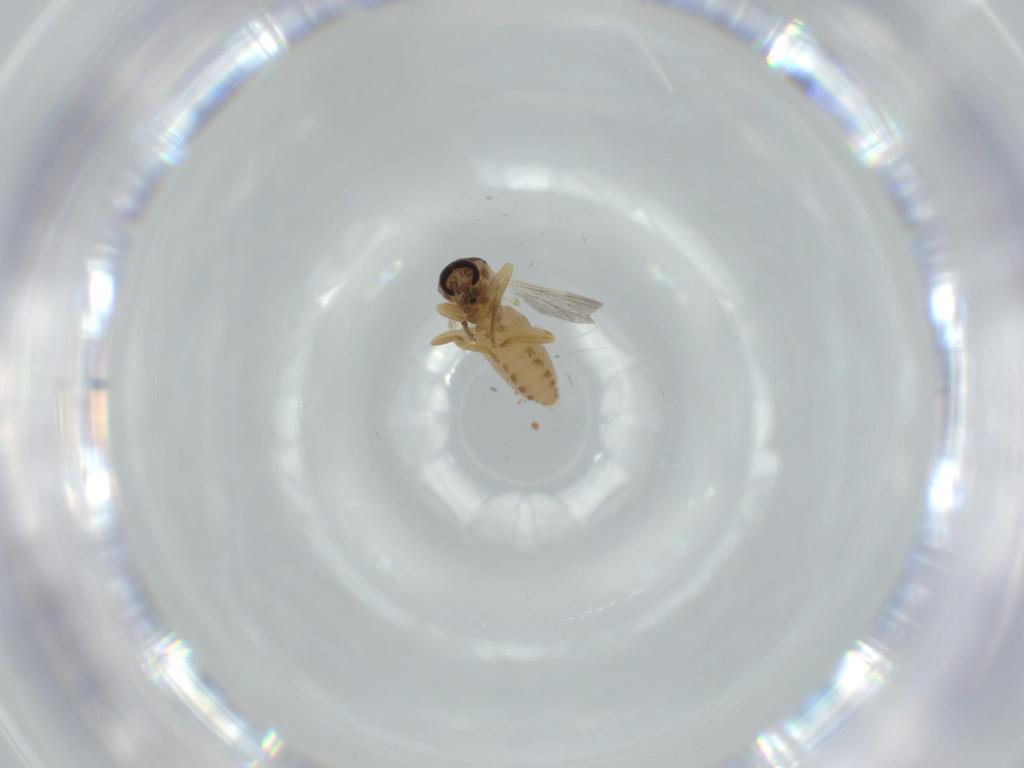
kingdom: Animalia
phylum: Arthropoda
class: Insecta
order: Diptera
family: Ceratopogonidae
